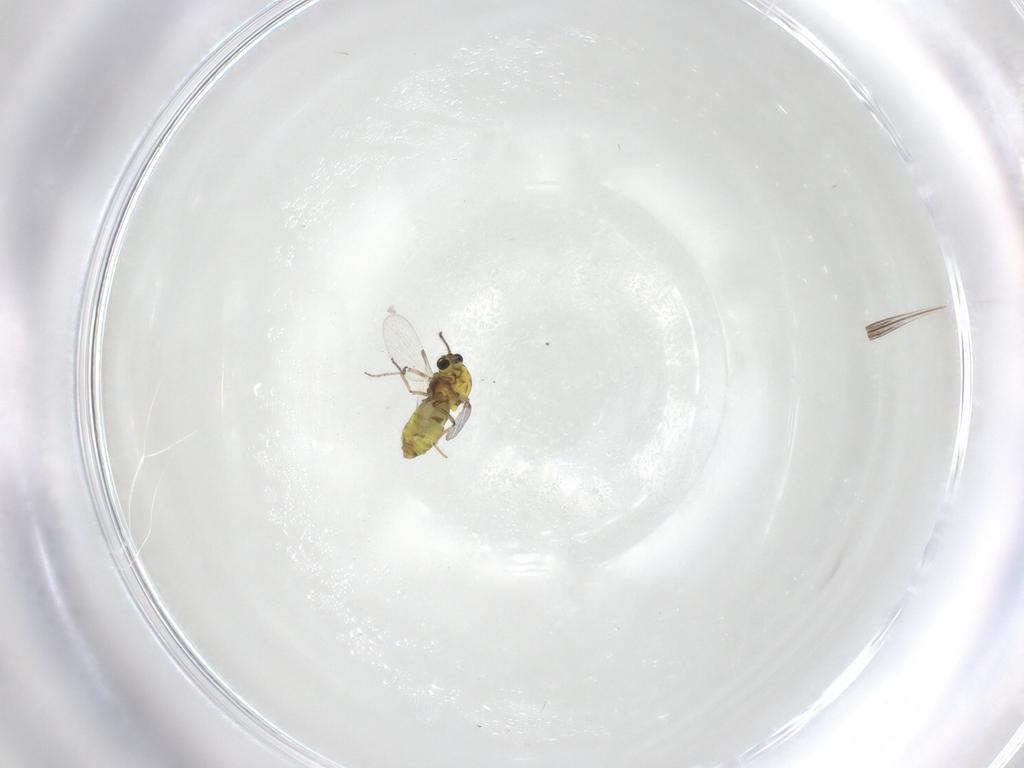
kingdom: Animalia
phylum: Arthropoda
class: Insecta
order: Diptera
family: Ceratopogonidae
